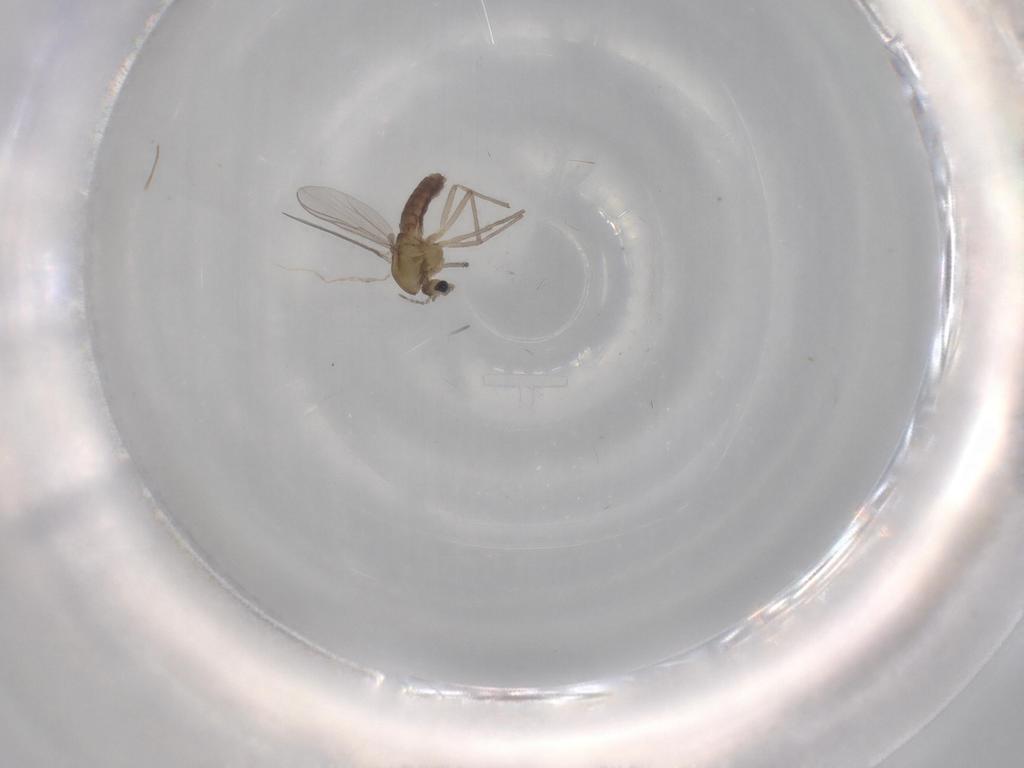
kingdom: Animalia
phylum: Arthropoda
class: Insecta
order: Diptera
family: Chironomidae
